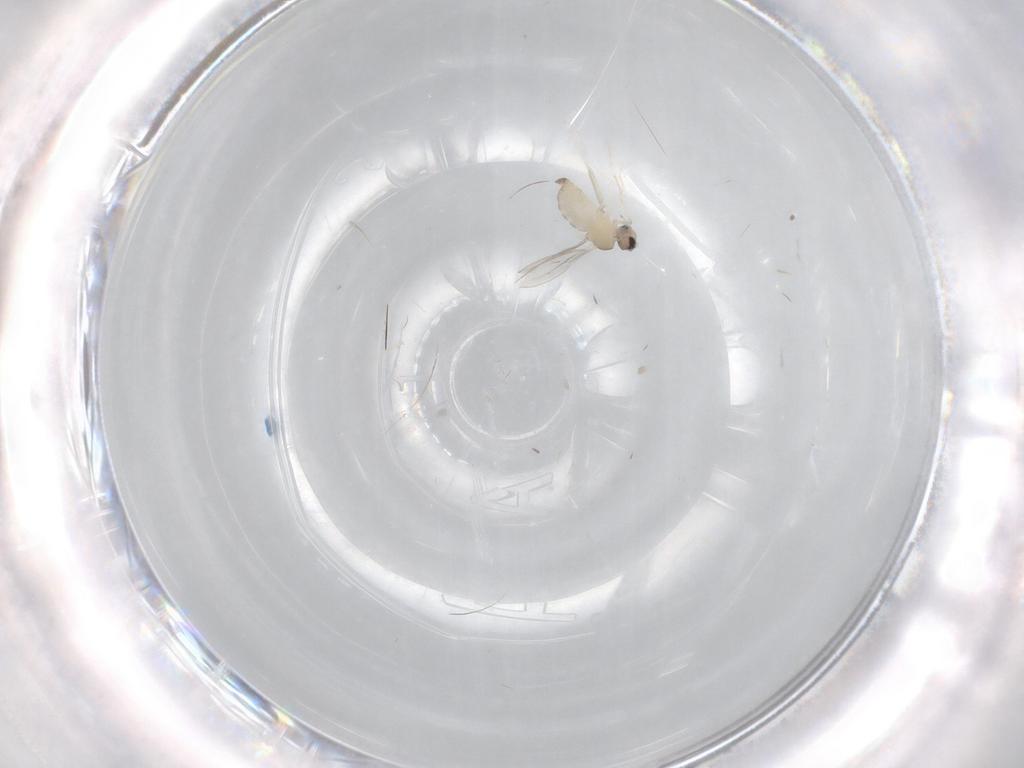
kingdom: Animalia
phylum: Arthropoda
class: Insecta
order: Diptera
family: Cecidomyiidae
